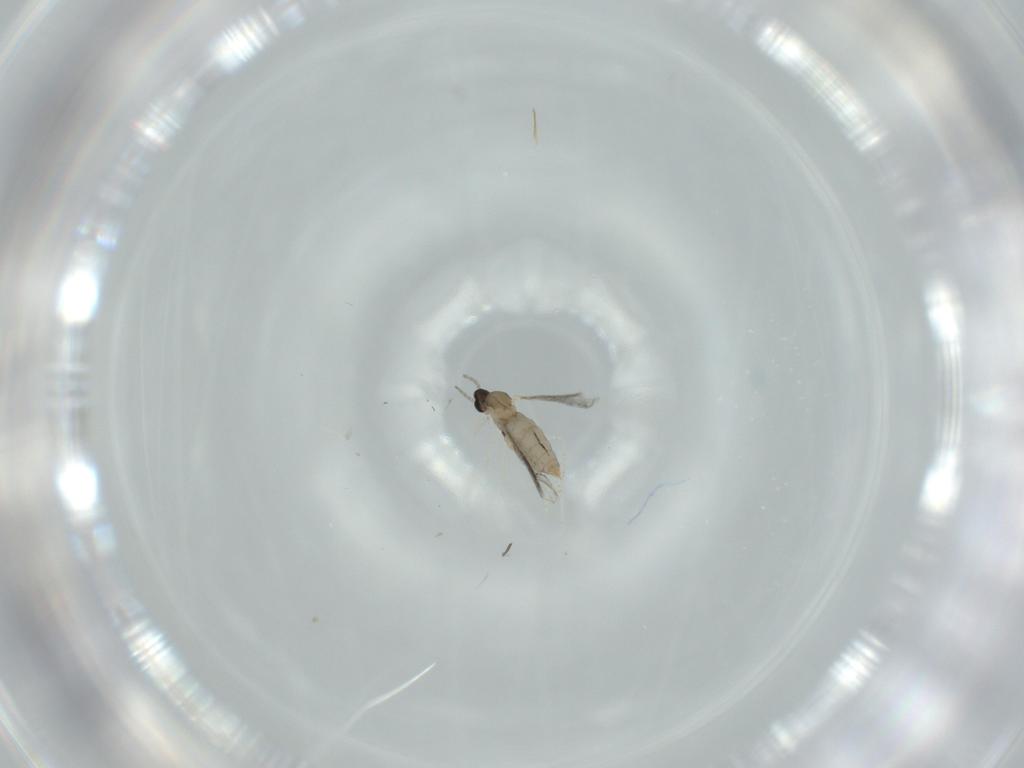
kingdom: Animalia
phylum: Arthropoda
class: Insecta
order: Diptera
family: Cecidomyiidae
